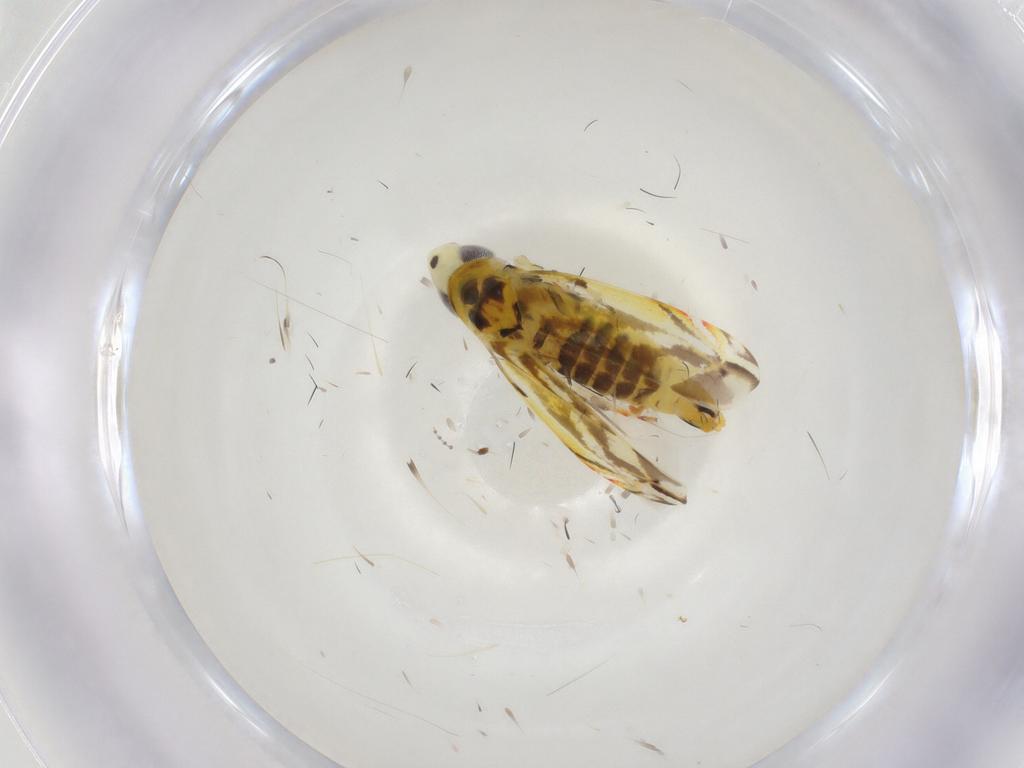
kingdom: Animalia
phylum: Arthropoda
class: Insecta
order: Hemiptera
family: Cicadellidae
